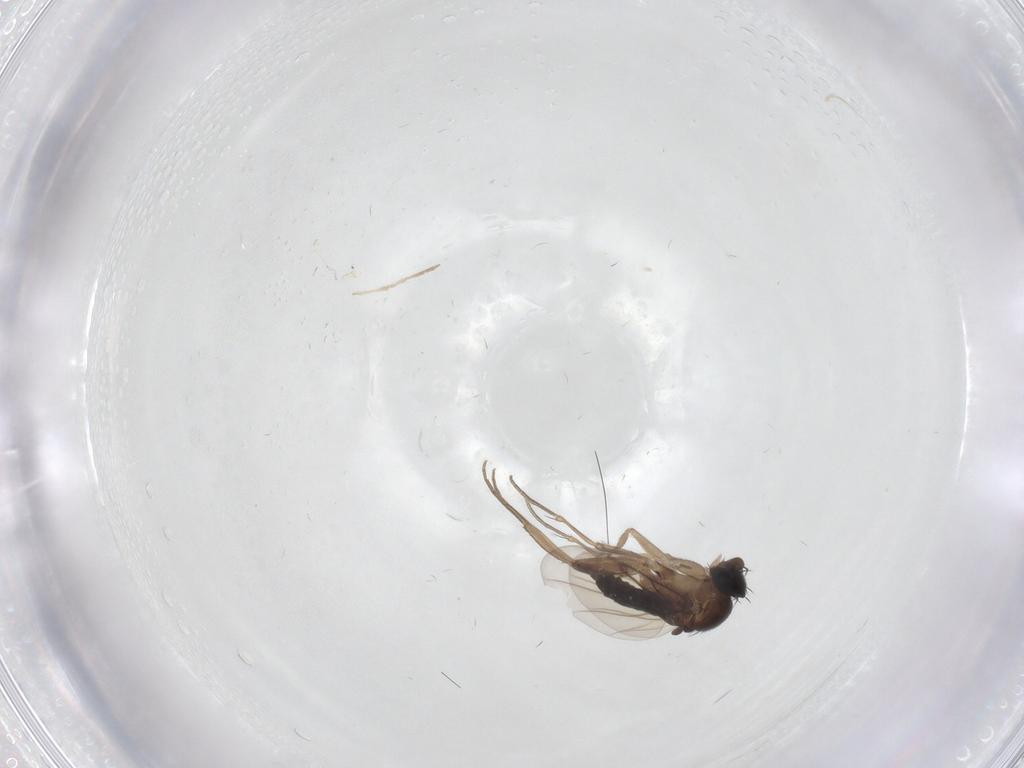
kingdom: Animalia
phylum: Arthropoda
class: Insecta
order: Diptera
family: Chironomidae
